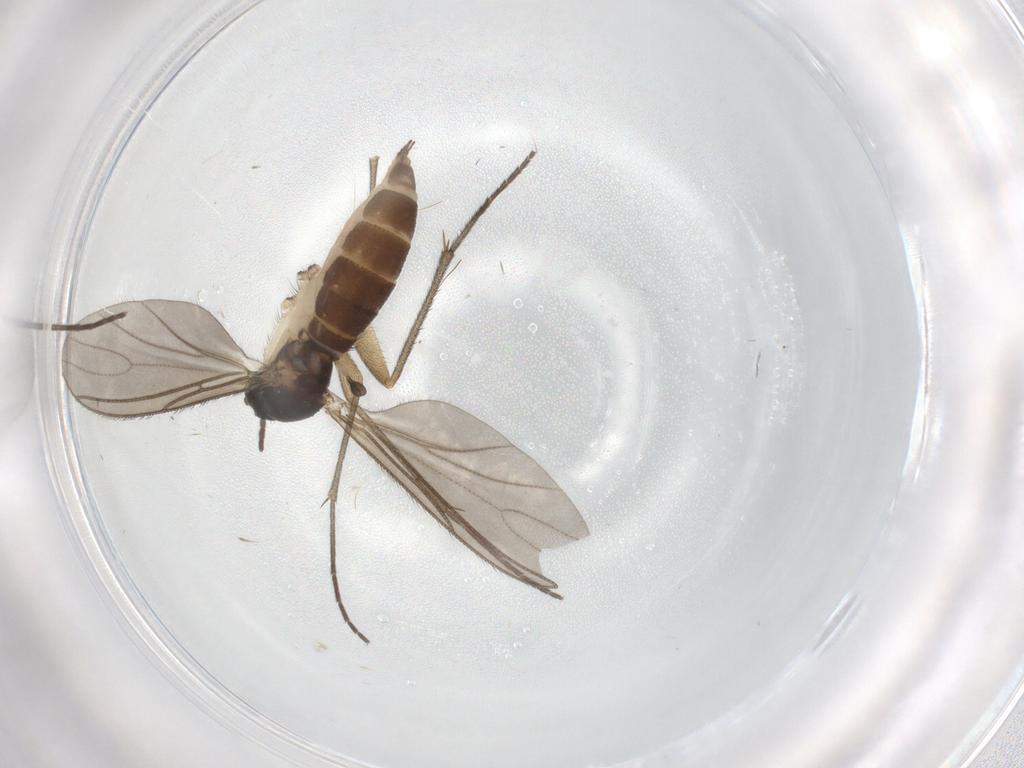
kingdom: Animalia
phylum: Arthropoda
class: Insecta
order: Diptera
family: Sciaridae
